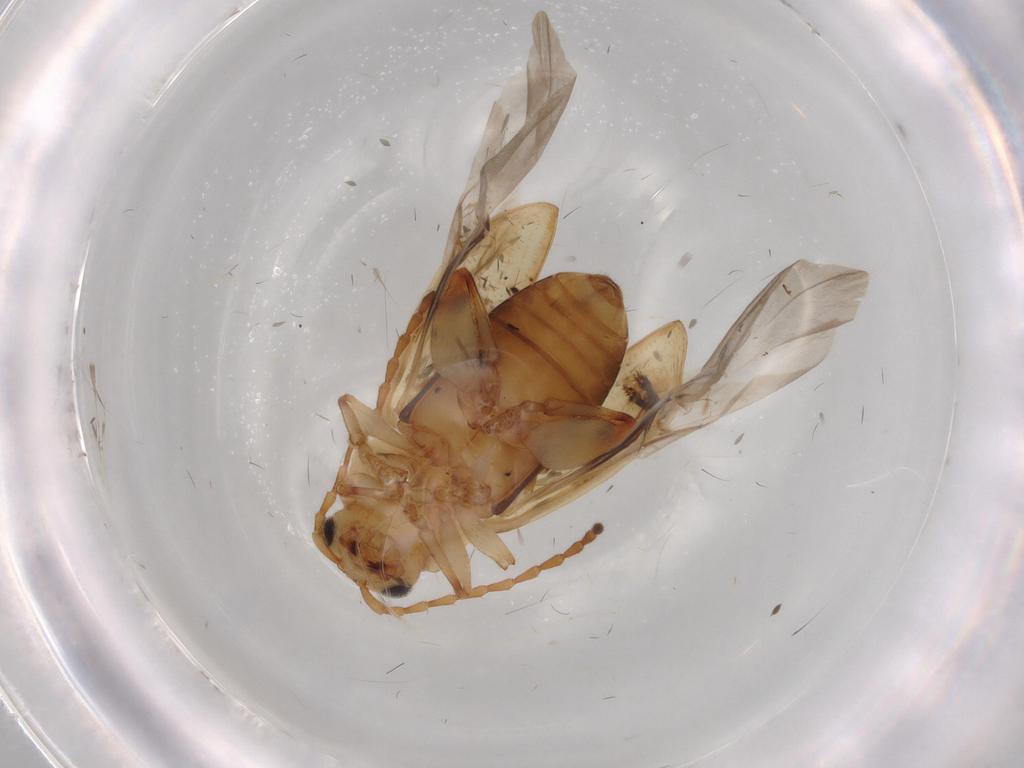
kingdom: Animalia
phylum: Arthropoda
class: Insecta
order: Coleoptera
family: Chrysomelidae
